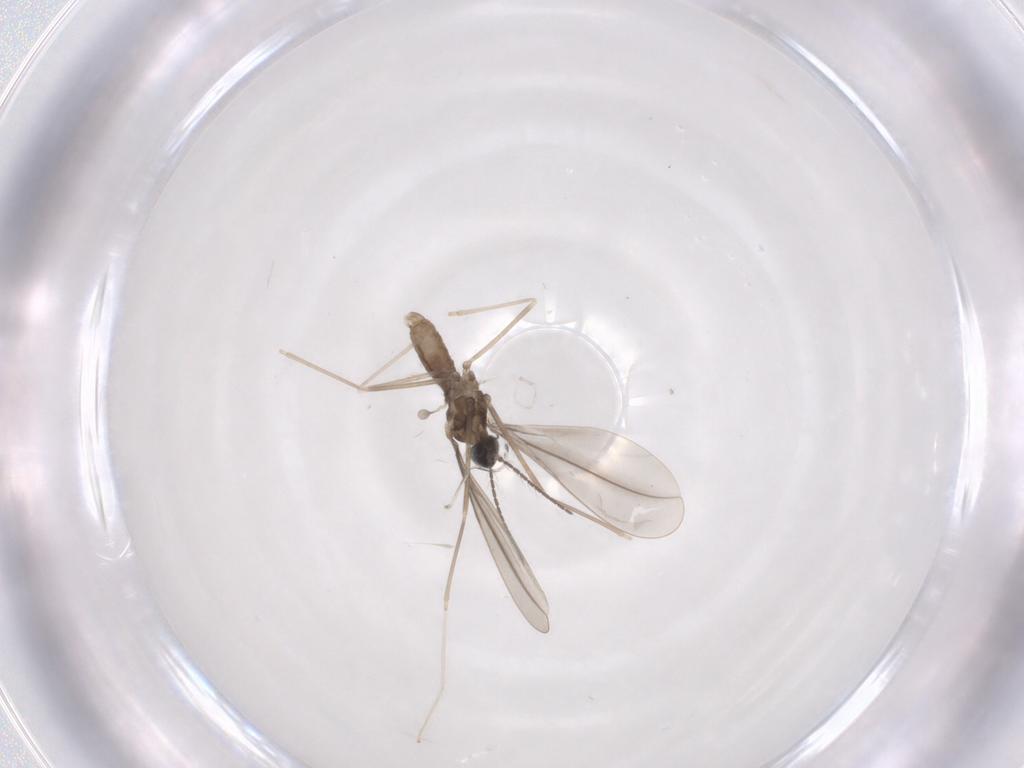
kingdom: Animalia
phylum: Arthropoda
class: Insecta
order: Diptera
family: Cecidomyiidae
